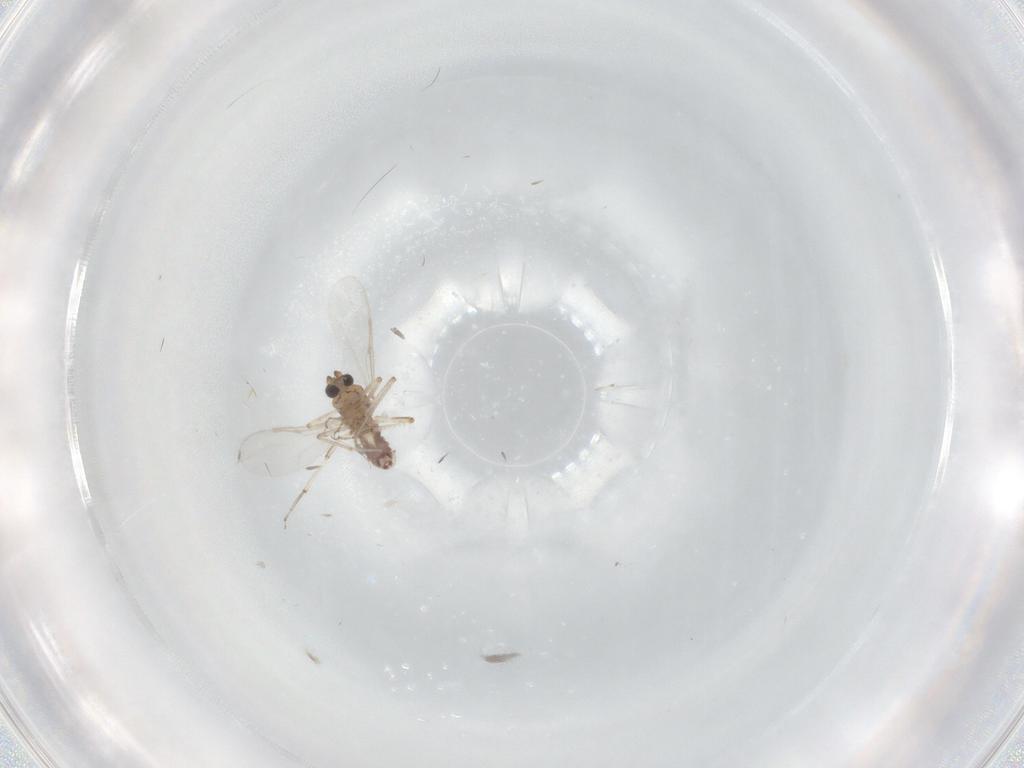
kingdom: Animalia
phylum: Arthropoda
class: Insecta
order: Diptera
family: Ceratopogonidae
